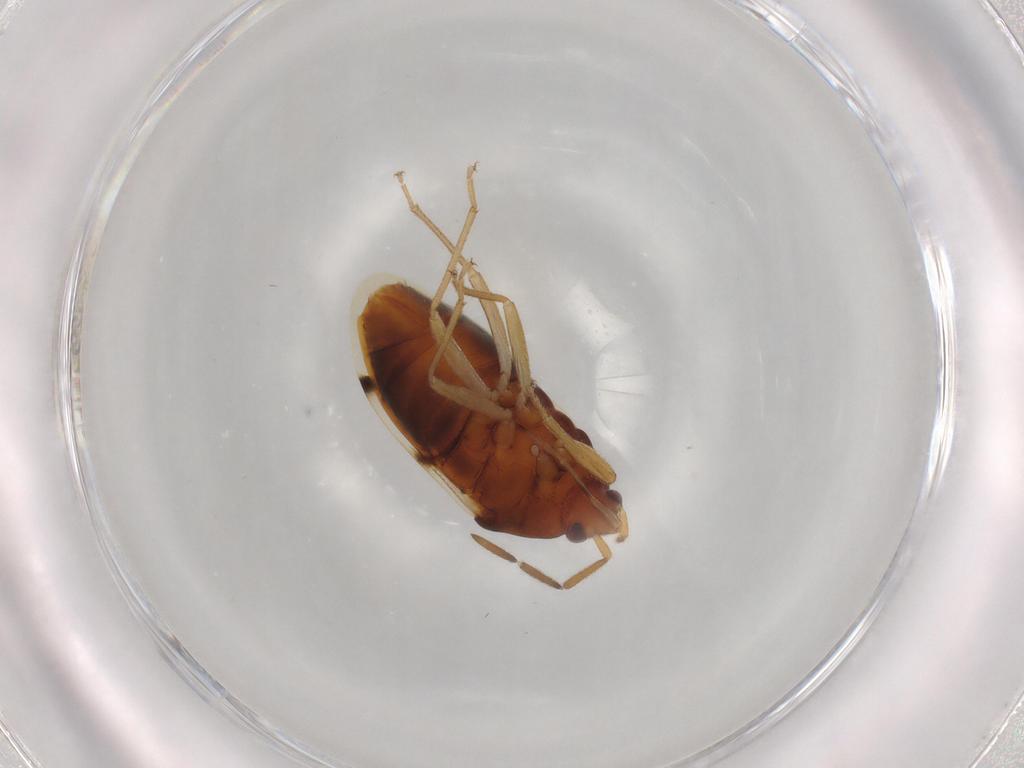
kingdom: Animalia
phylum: Arthropoda
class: Insecta
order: Hemiptera
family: Rhyparochromidae
